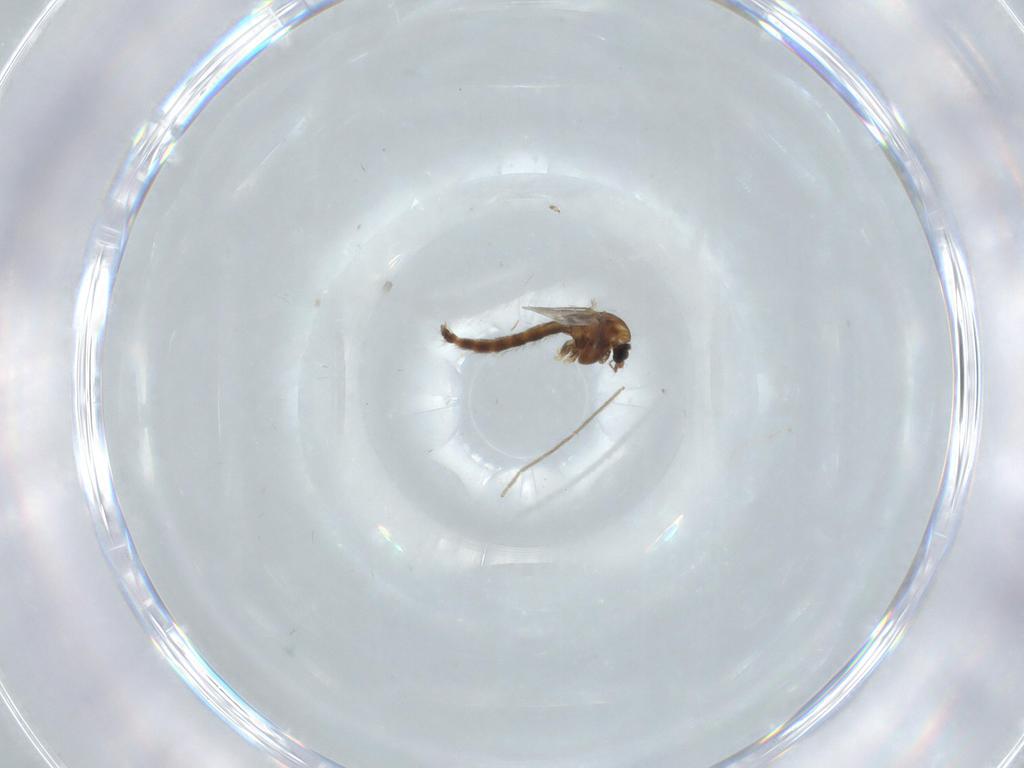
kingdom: Animalia
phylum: Arthropoda
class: Insecta
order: Diptera
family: Chironomidae
